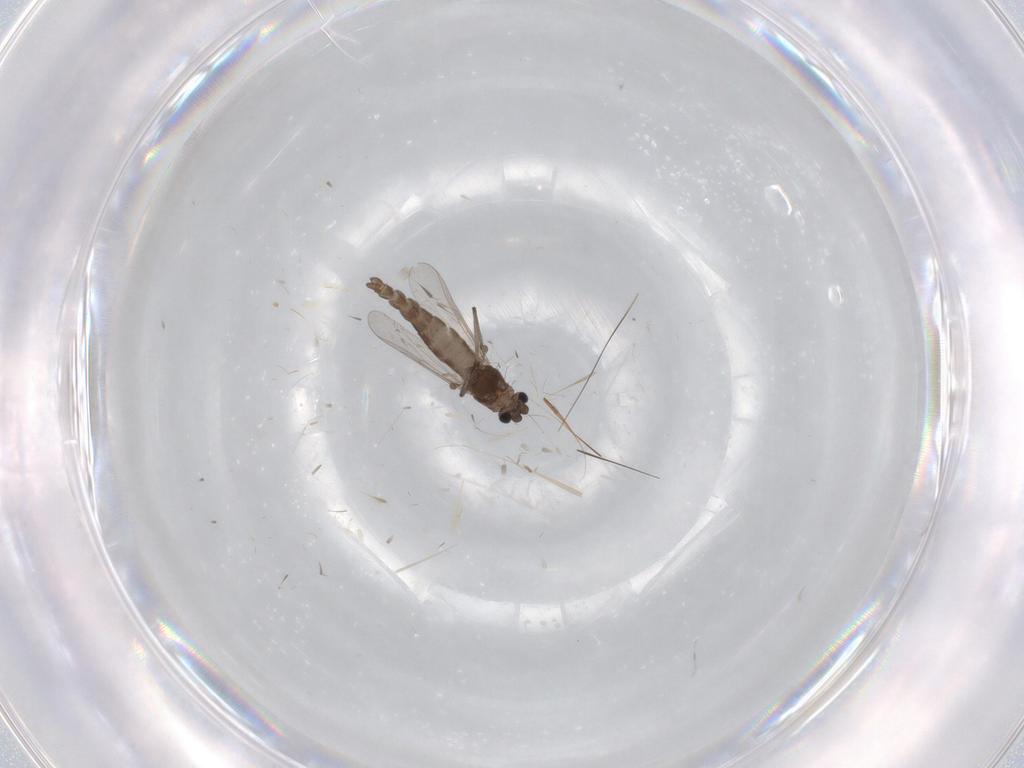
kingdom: Animalia
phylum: Arthropoda
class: Insecta
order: Diptera
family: Chironomidae
